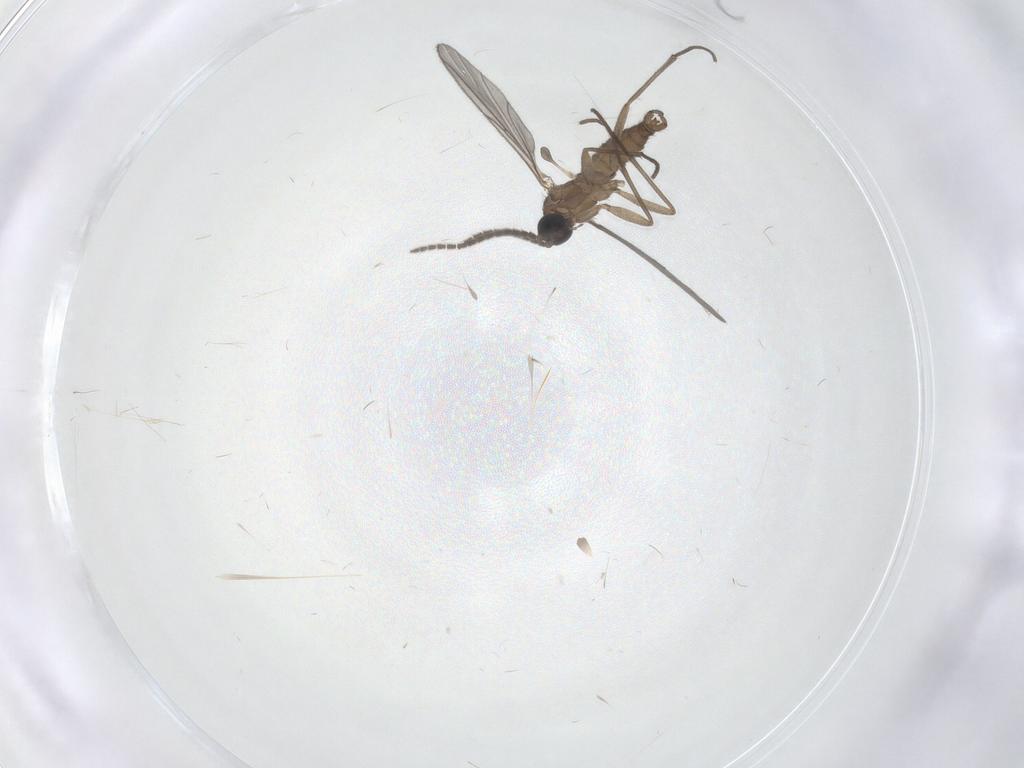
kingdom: Animalia
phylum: Arthropoda
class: Insecta
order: Diptera
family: Sciaridae
